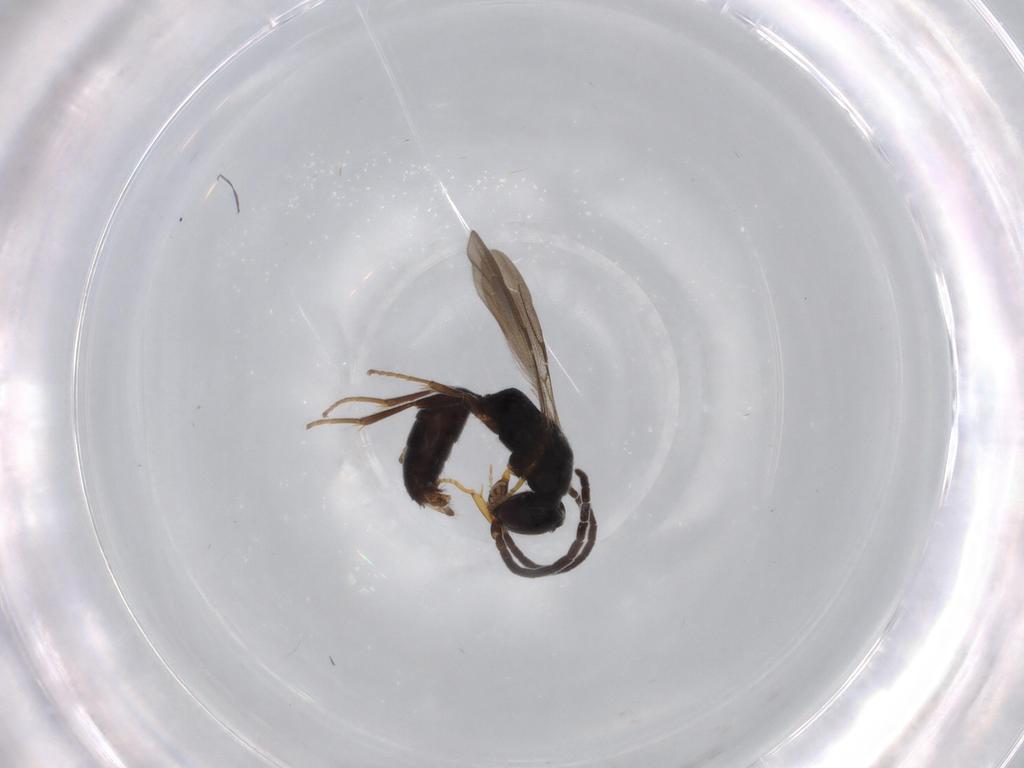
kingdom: Animalia
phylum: Arthropoda
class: Insecta
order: Hymenoptera
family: Bethylidae
